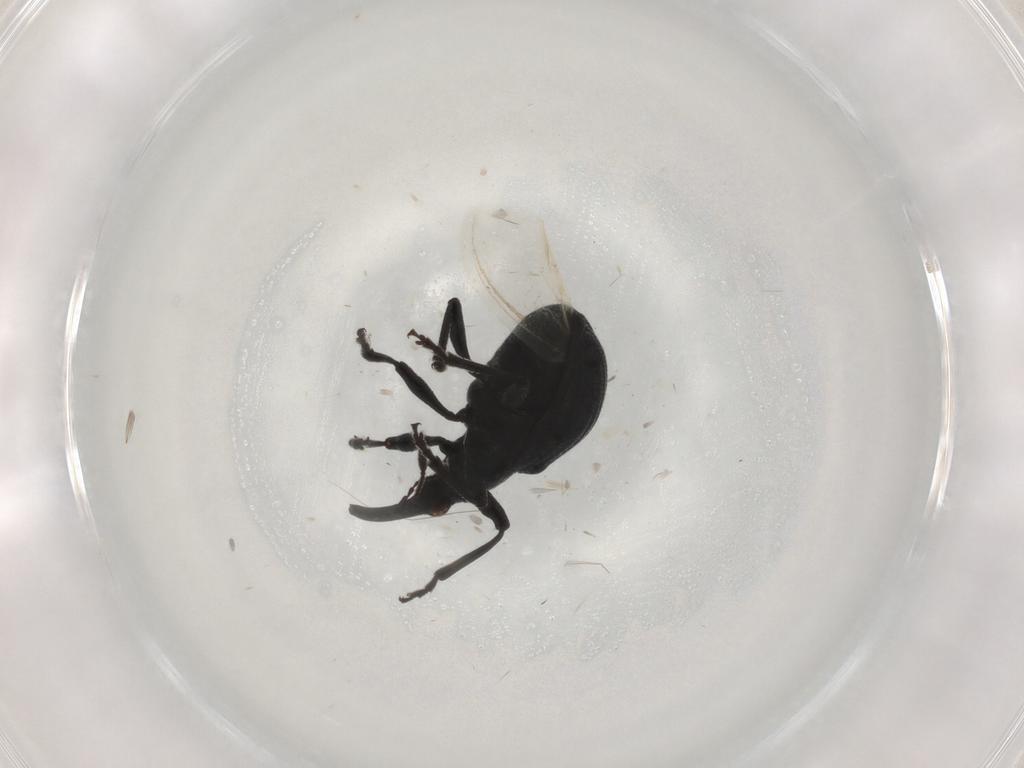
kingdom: Animalia
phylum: Arthropoda
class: Insecta
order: Coleoptera
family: Brentidae
